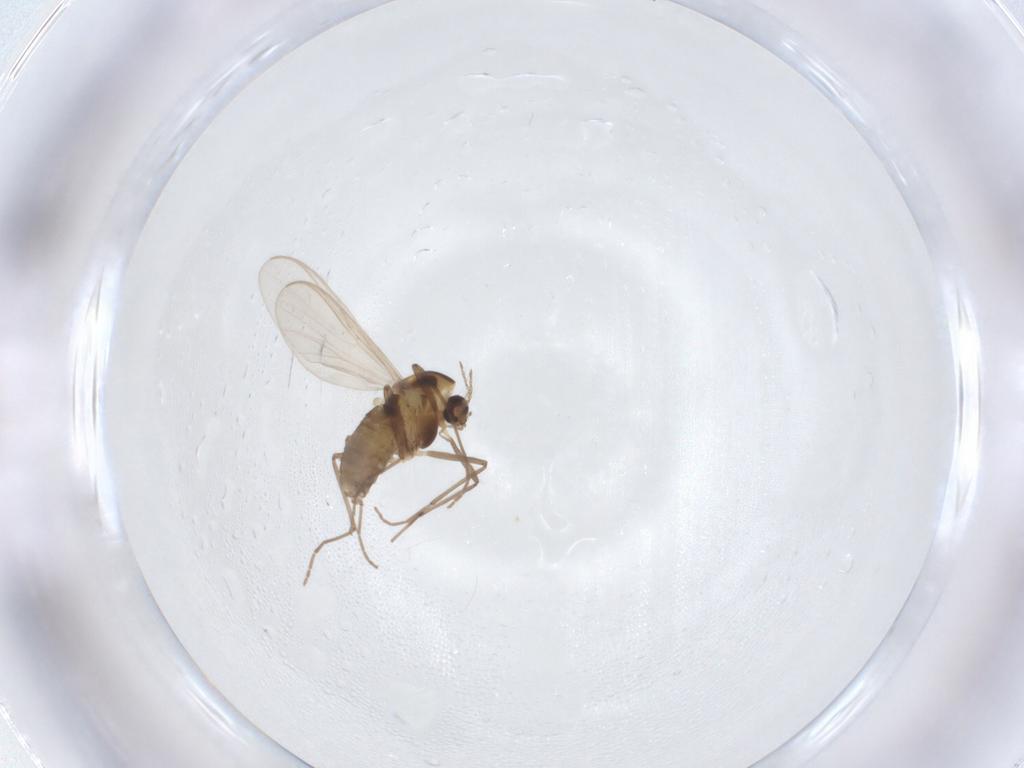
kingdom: Animalia
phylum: Arthropoda
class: Insecta
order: Diptera
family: Chironomidae
